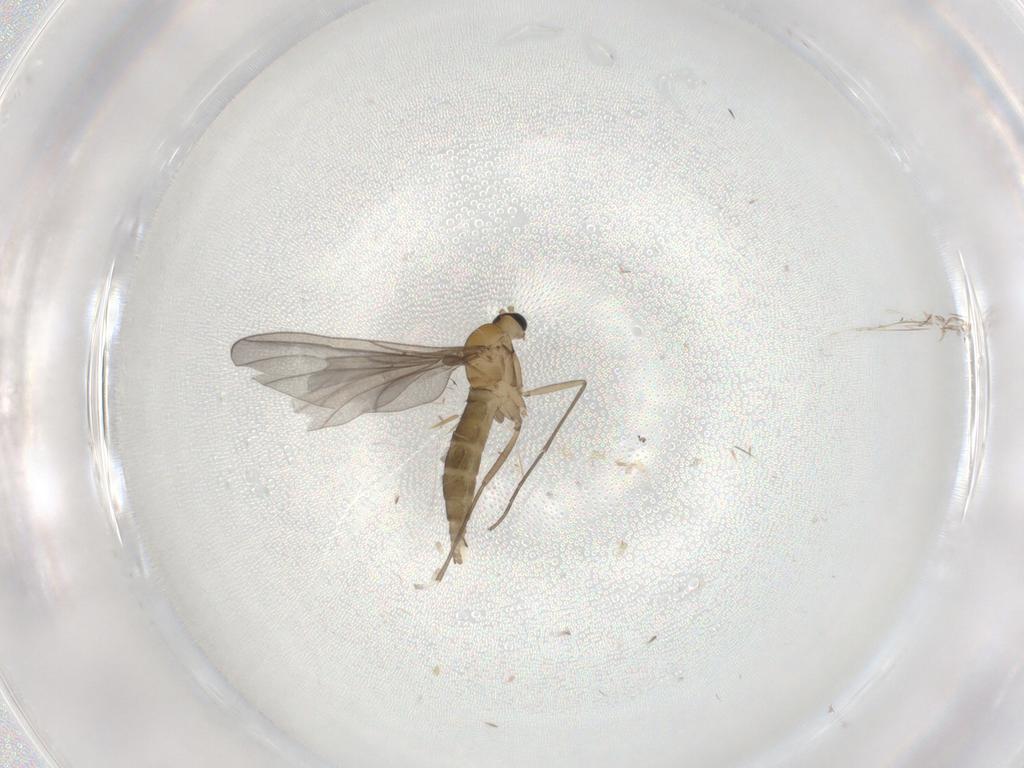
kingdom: Animalia
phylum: Arthropoda
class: Insecta
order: Diptera
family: Sciaridae
